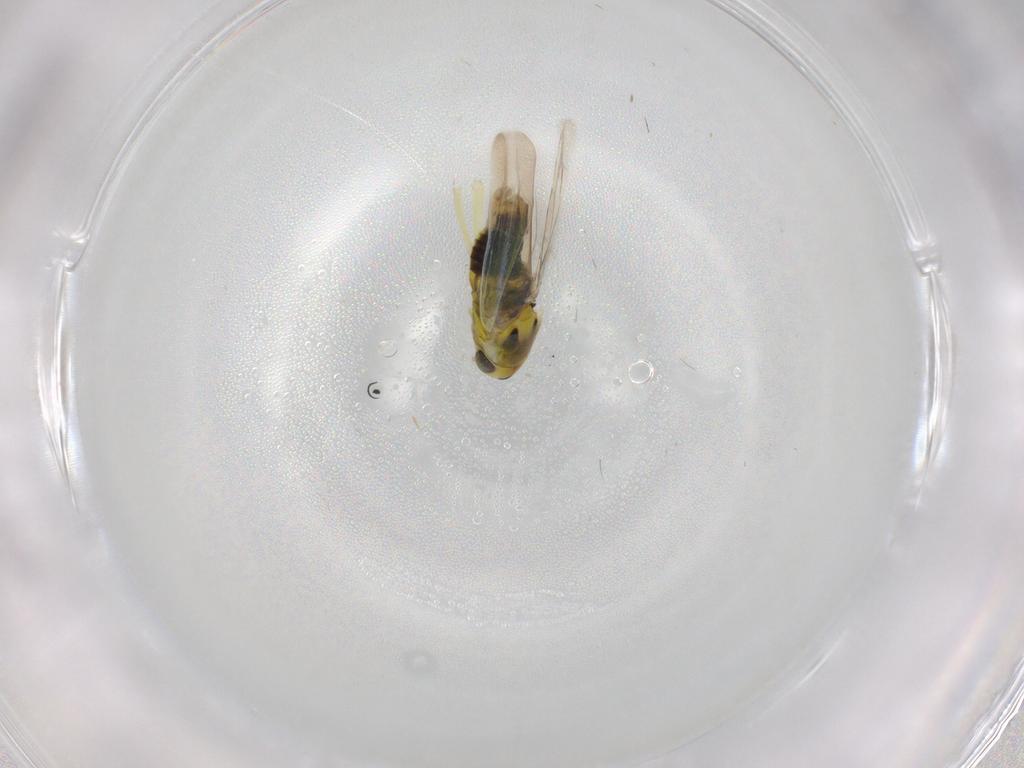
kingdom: Animalia
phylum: Arthropoda
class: Insecta
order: Hemiptera
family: Cicadellidae
